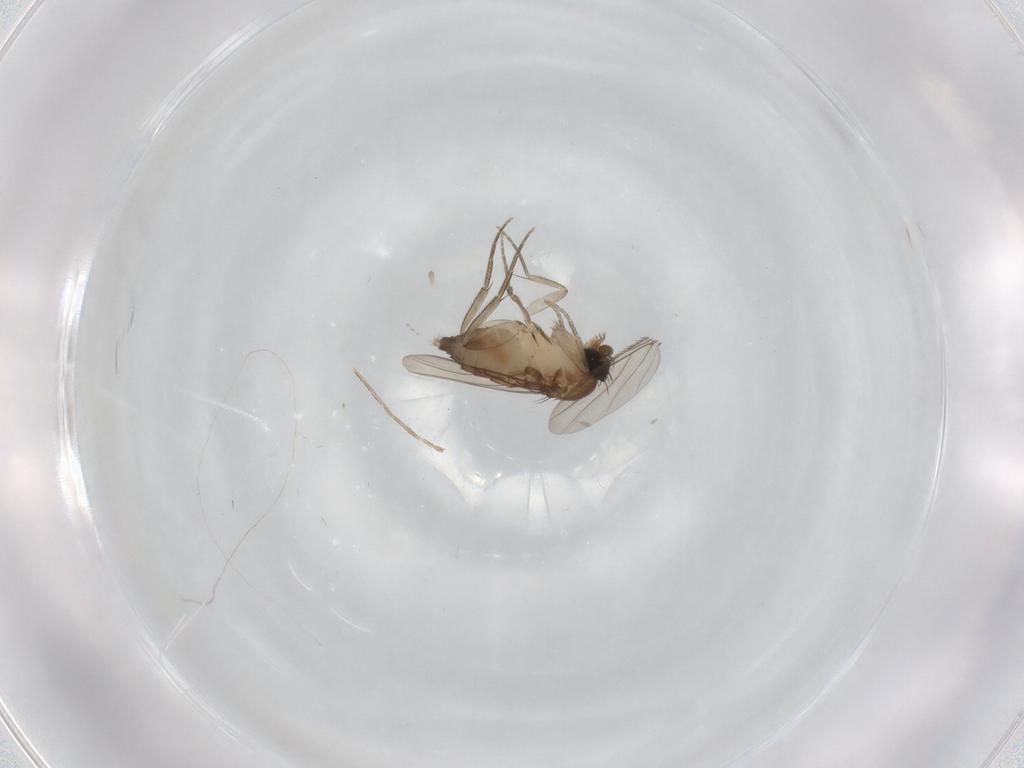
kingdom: Animalia
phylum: Arthropoda
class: Insecta
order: Diptera
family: Phoridae
